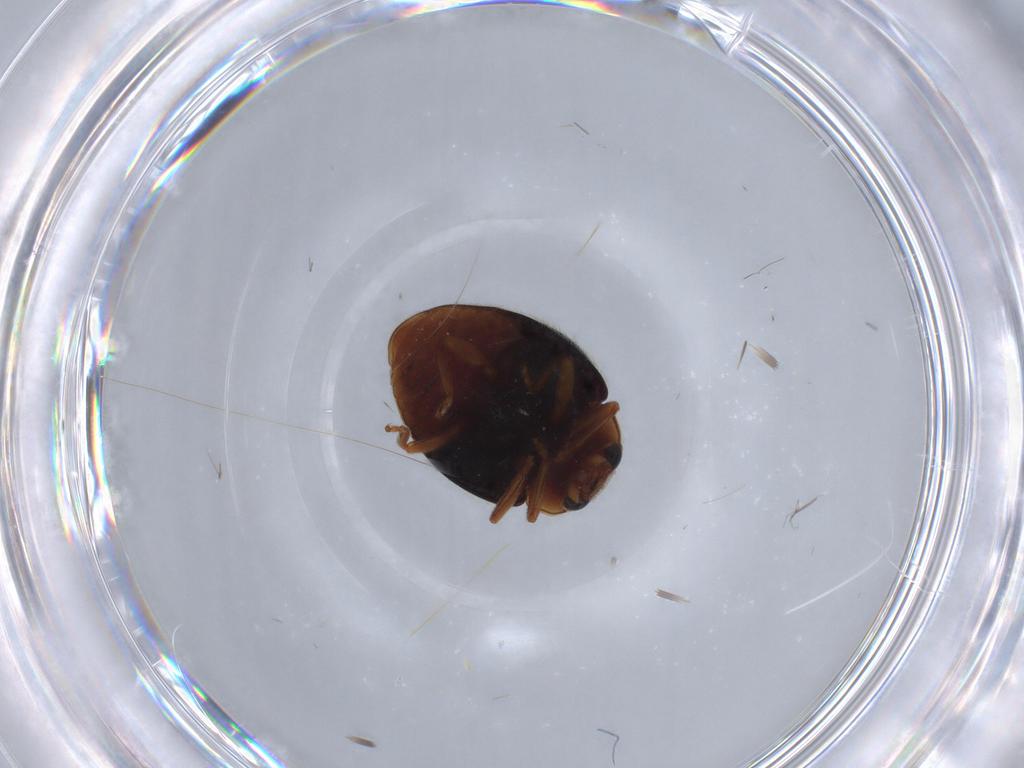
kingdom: Animalia
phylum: Arthropoda
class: Insecta
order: Coleoptera
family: Coccinellidae
